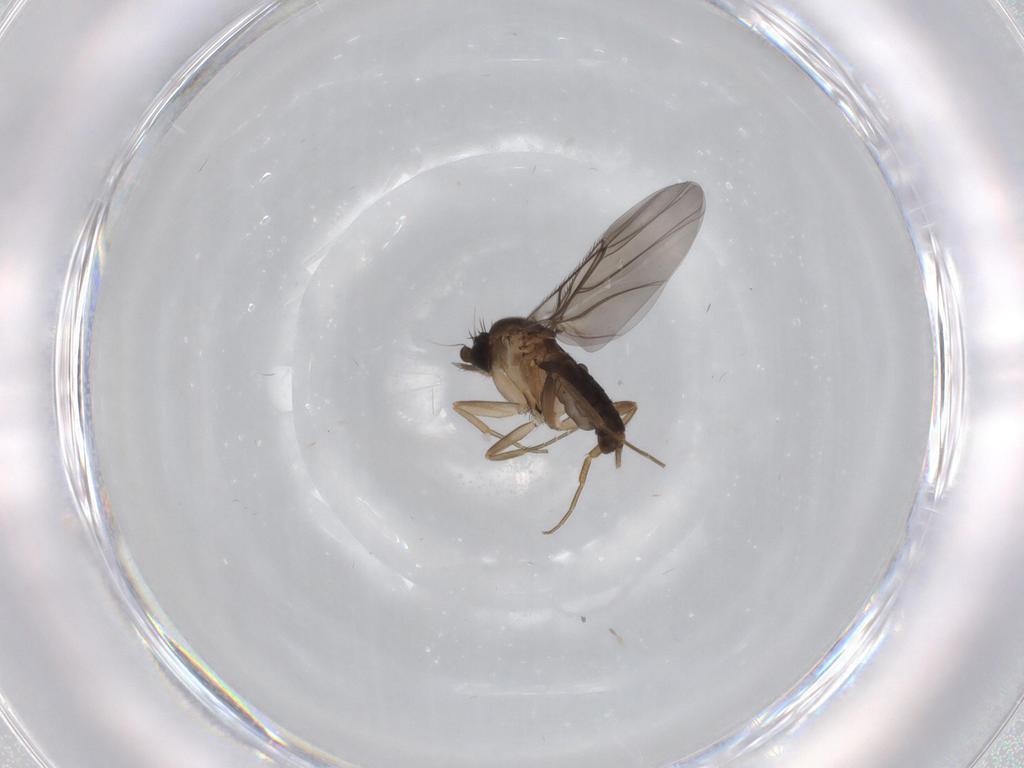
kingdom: Animalia
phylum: Arthropoda
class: Insecta
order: Diptera
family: Phoridae
